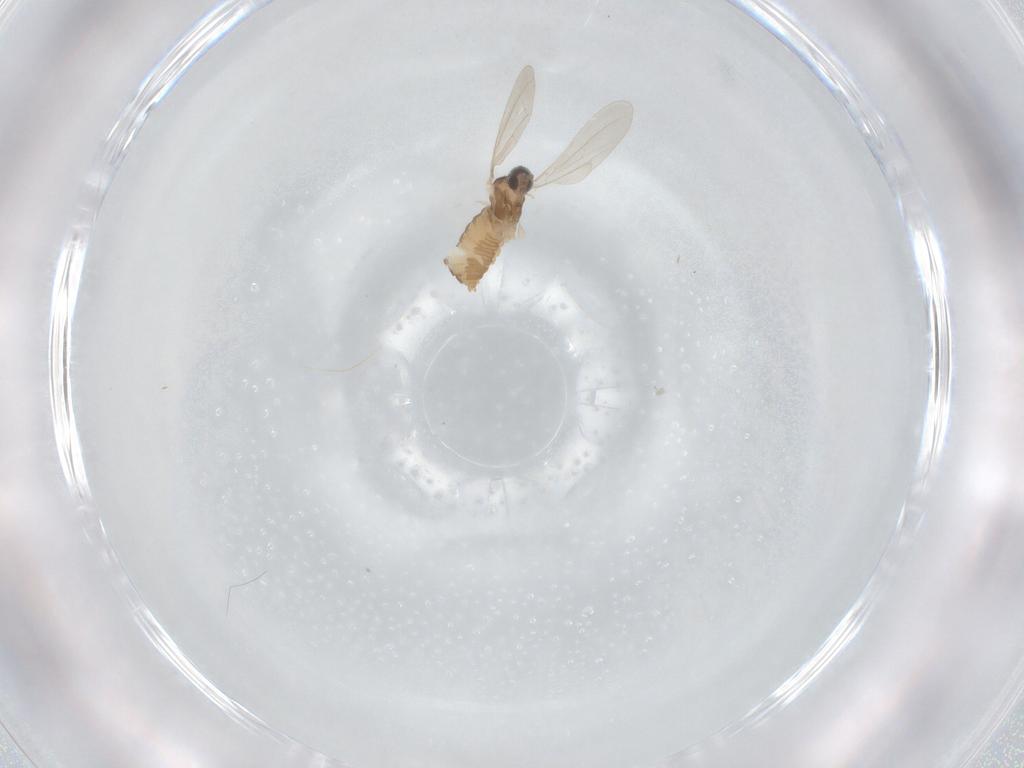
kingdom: Animalia
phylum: Arthropoda
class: Insecta
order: Diptera
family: Cecidomyiidae
